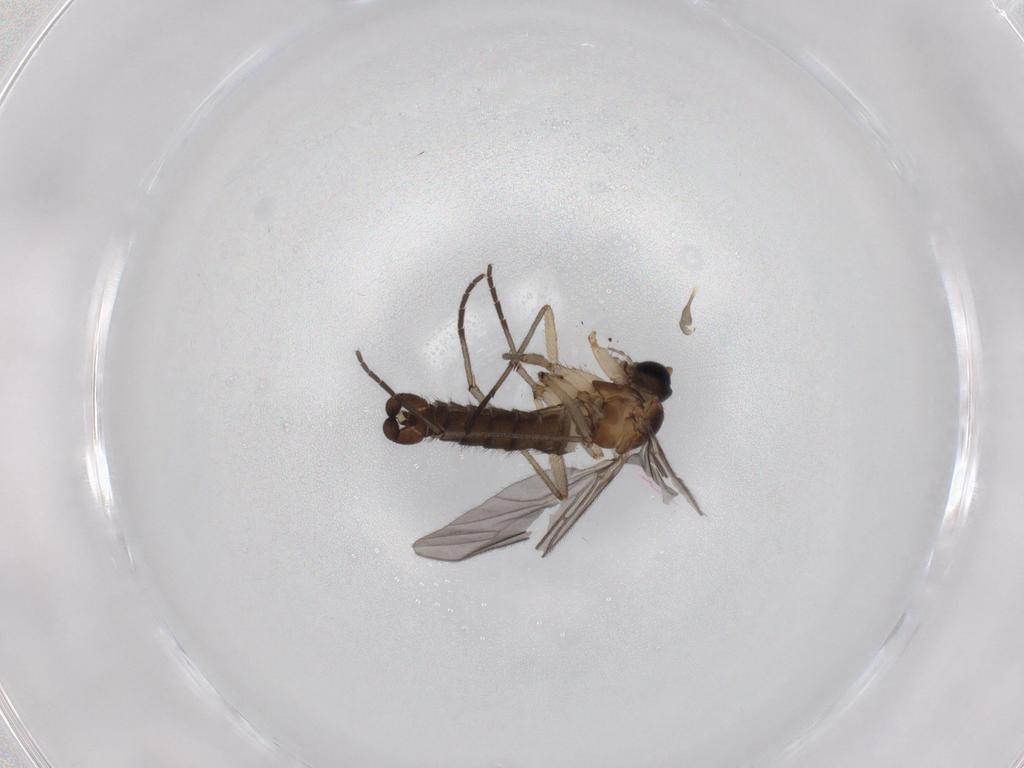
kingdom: Animalia
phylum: Arthropoda
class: Insecta
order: Diptera
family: Sciaridae
